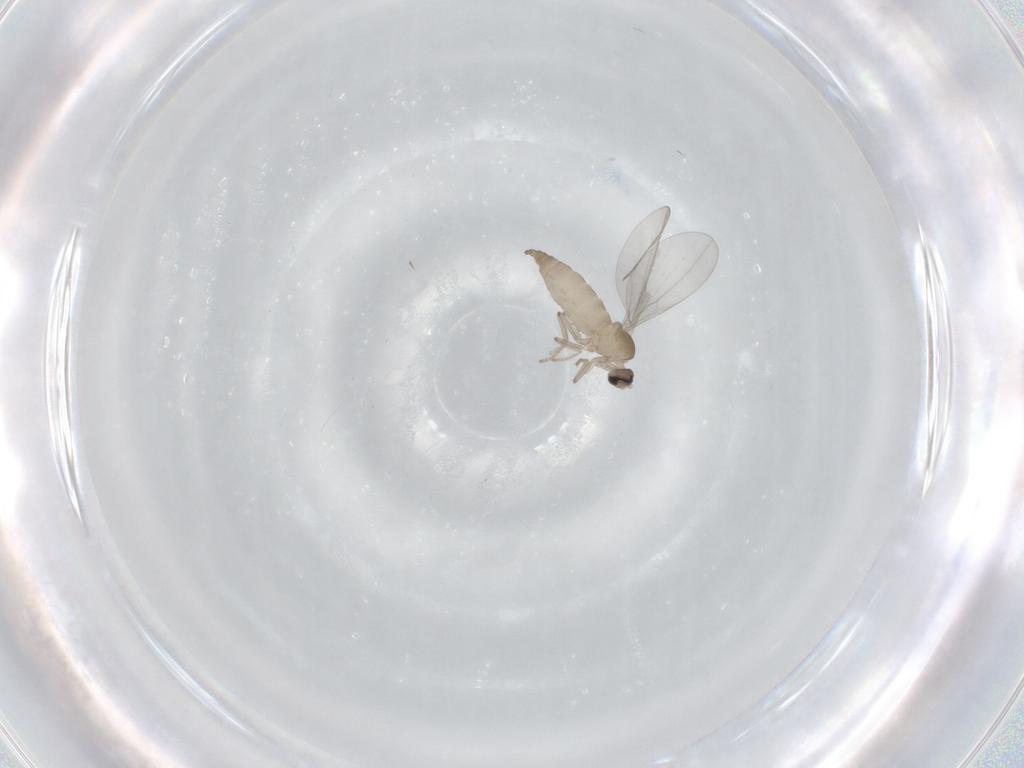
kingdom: Animalia
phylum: Arthropoda
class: Insecta
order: Diptera
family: Cecidomyiidae
